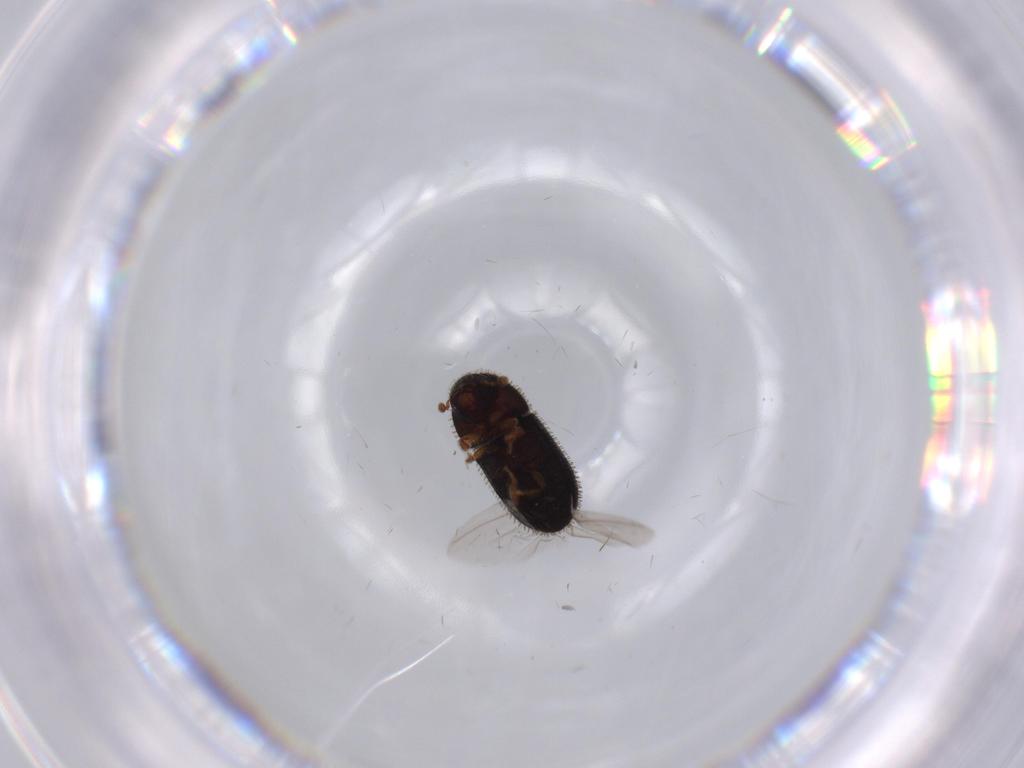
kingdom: Animalia
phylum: Arthropoda
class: Insecta
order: Coleoptera
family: Curculionidae
